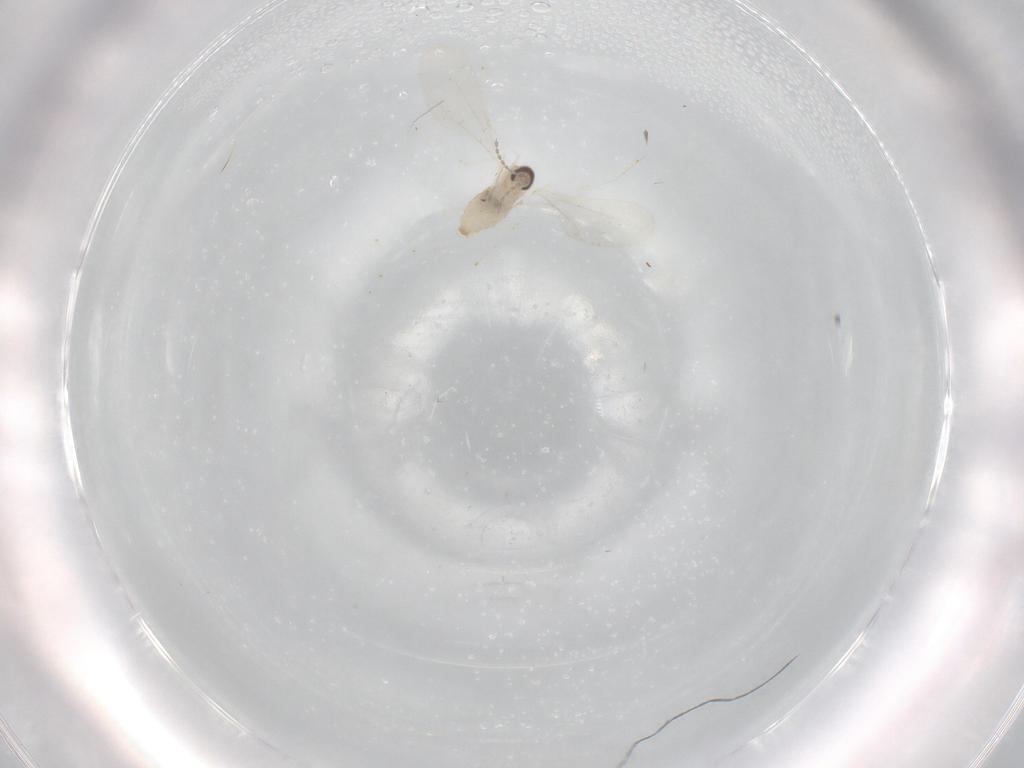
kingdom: Animalia
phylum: Arthropoda
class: Insecta
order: Diptera
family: Cecidomyiidae
